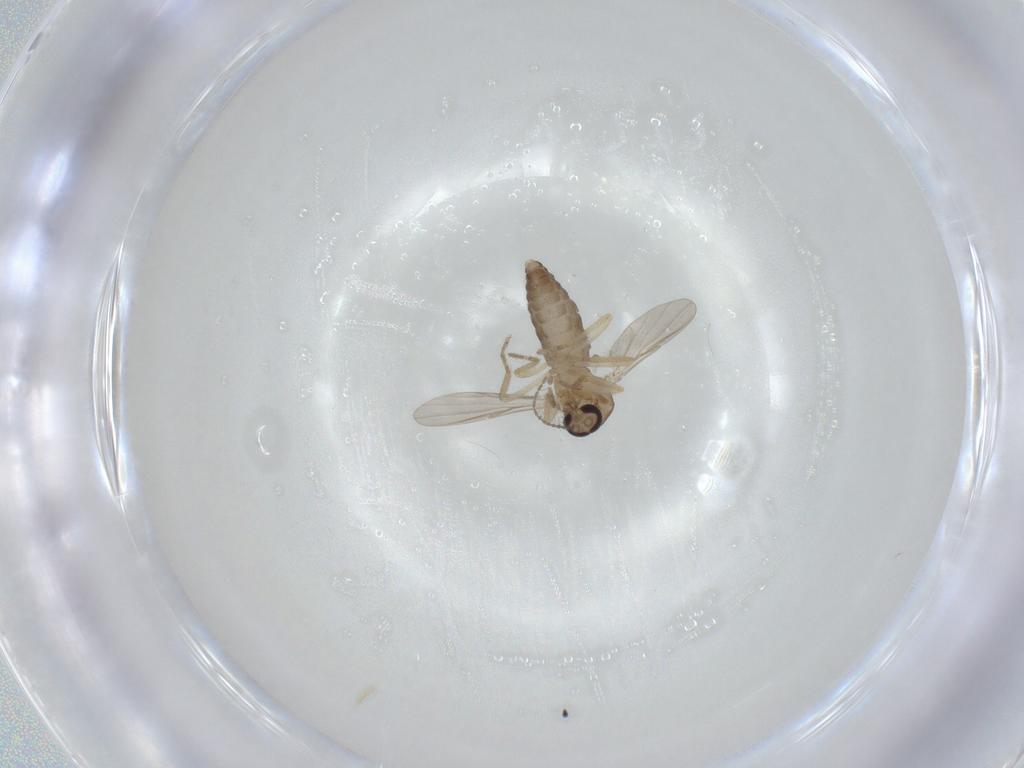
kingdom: Animalia
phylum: Arthropoda
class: Insecta
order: Diptera
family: Ceratopogonidae
